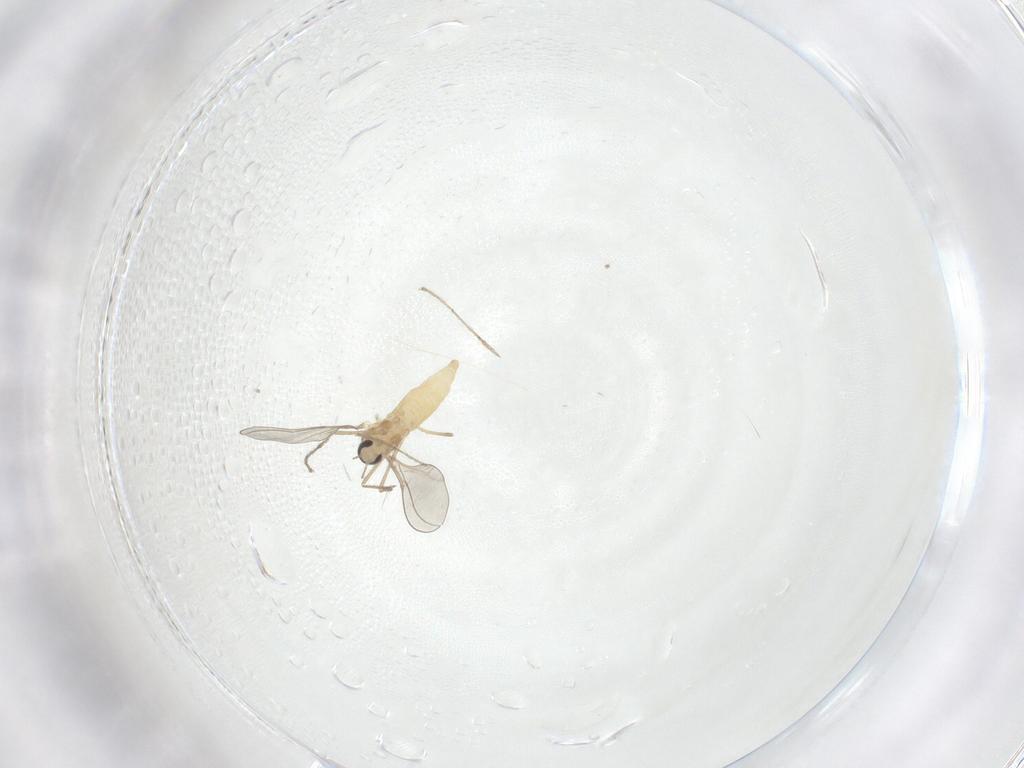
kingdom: Animalia
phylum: Arthropoda
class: Insecta
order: Diptera
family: Cecidomyiidae
